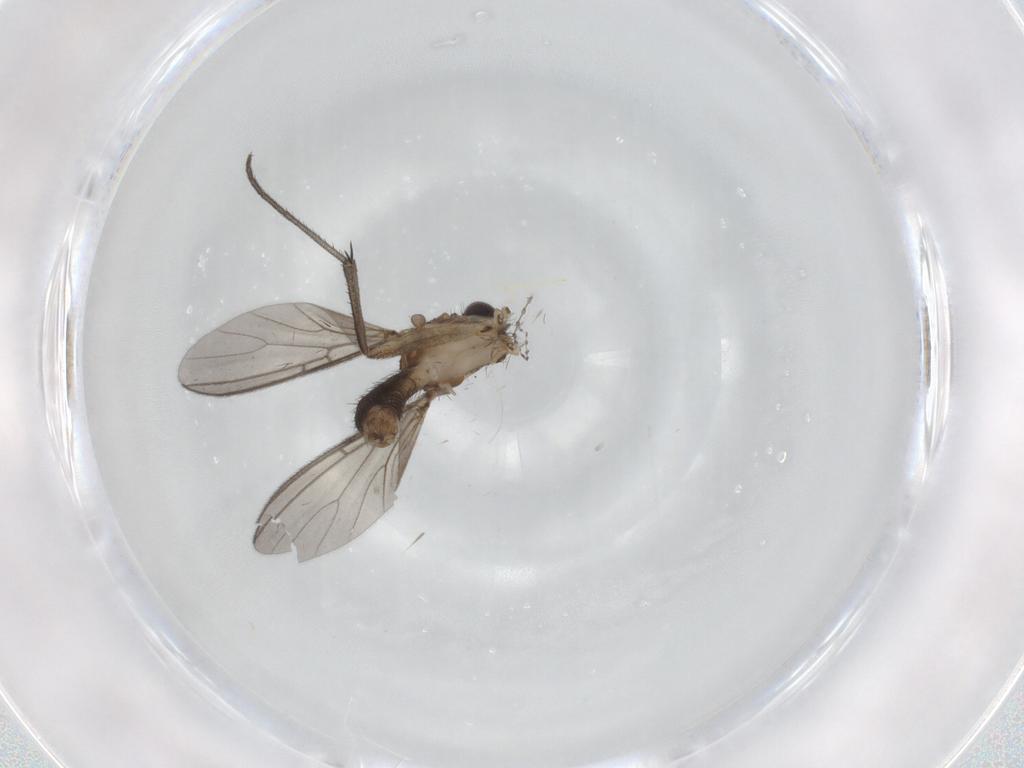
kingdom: Animalia
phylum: Arthropoda
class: Insecta
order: Diptera
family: Mycetophilidae
